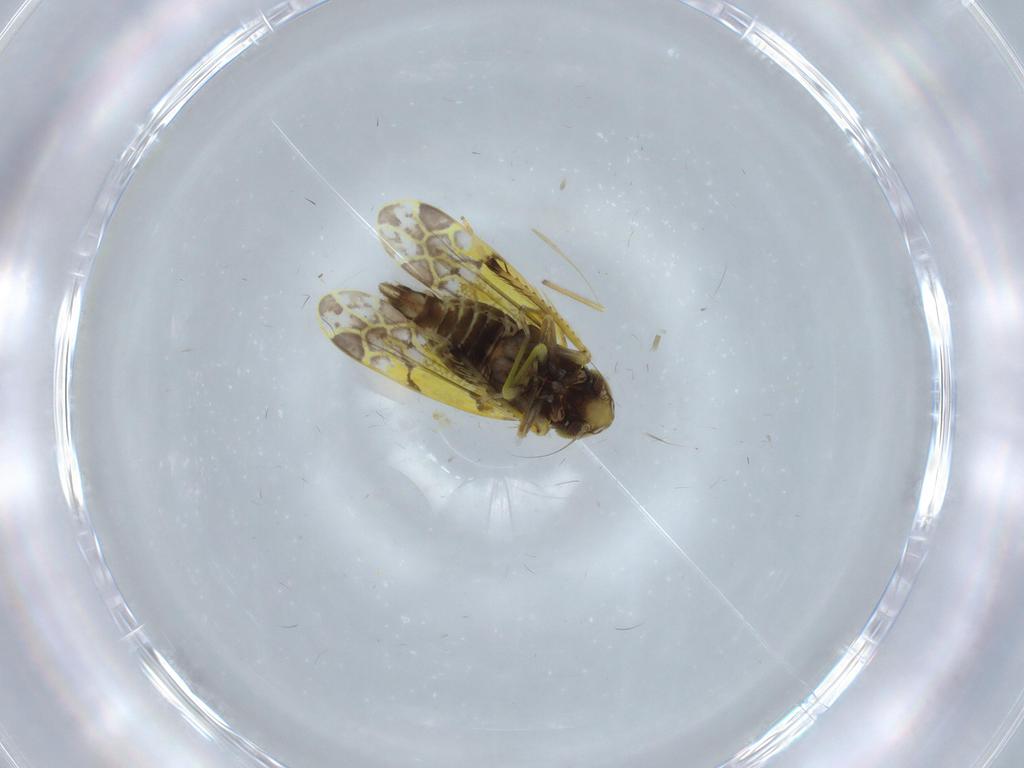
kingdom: Animalia
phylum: Arthropoda
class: Insecta
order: Hemiptera
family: Cicadellidae
